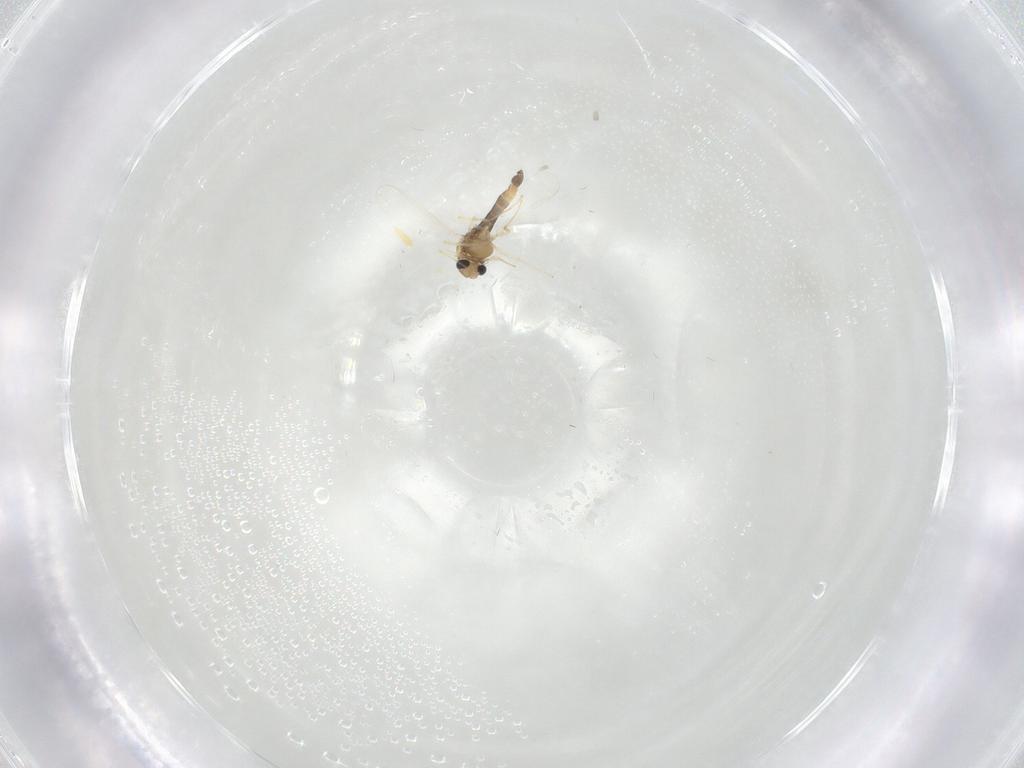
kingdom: Animalia
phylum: Arthropoda
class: Insecta
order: Diptera
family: Chironomidae
